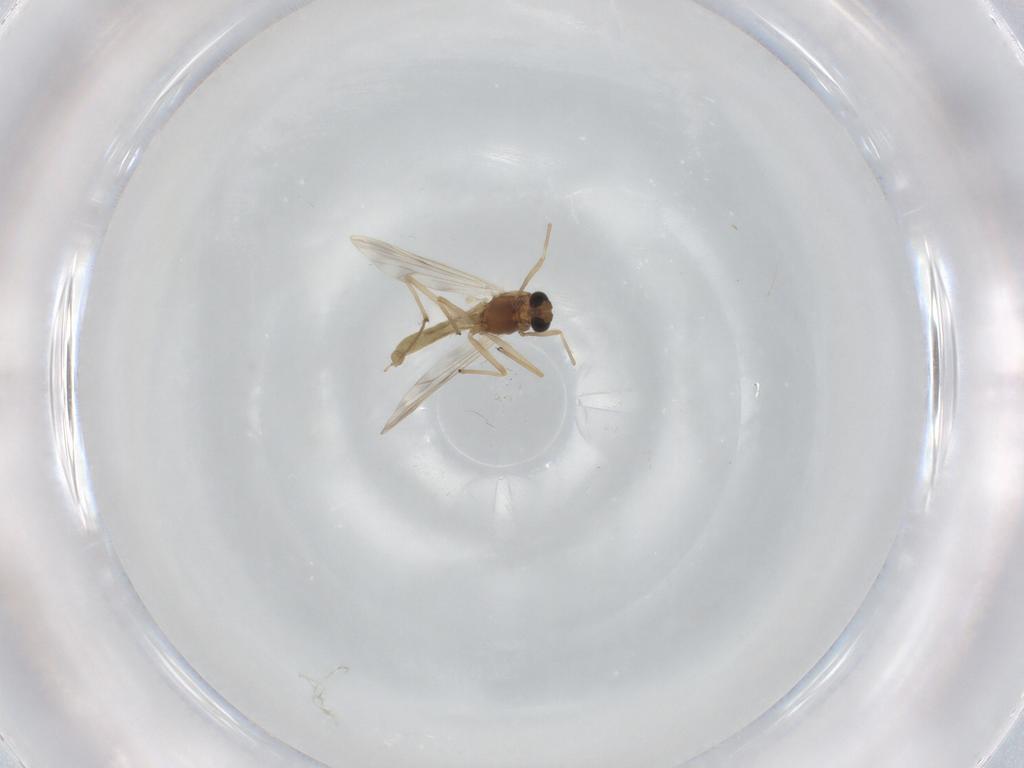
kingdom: Animalia
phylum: Arthropoda
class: Insecta
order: Diptera
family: Chironomidae
